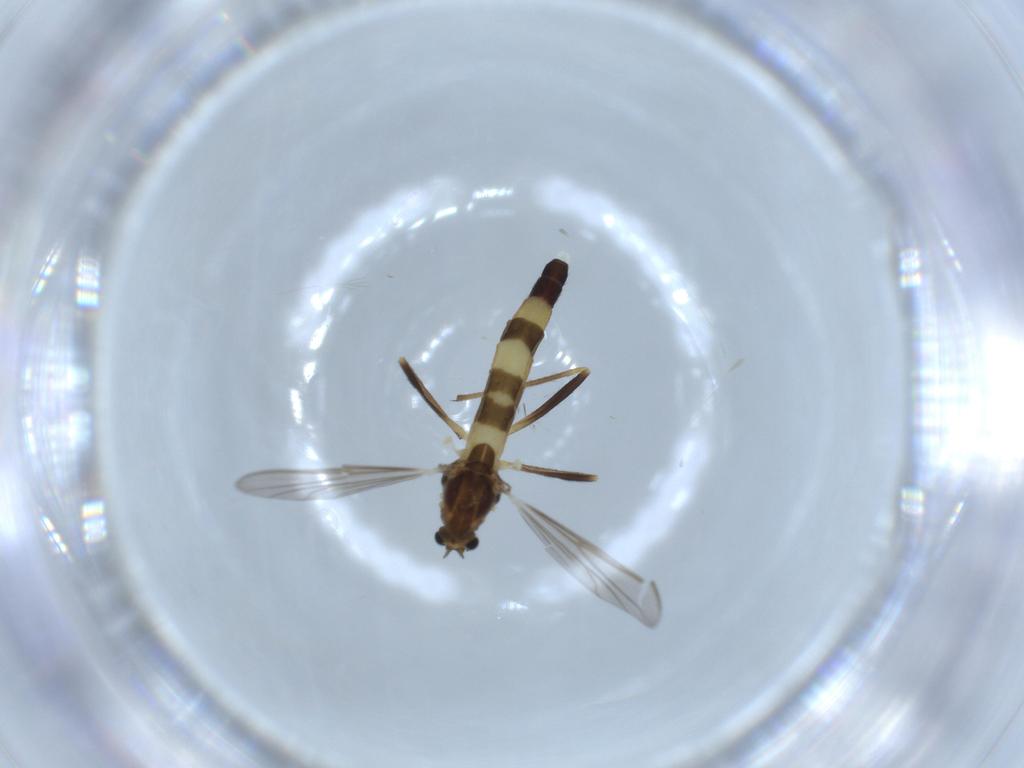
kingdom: Animalia
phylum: Arthropoda
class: Insecta
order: Diptera
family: Chironomidae
